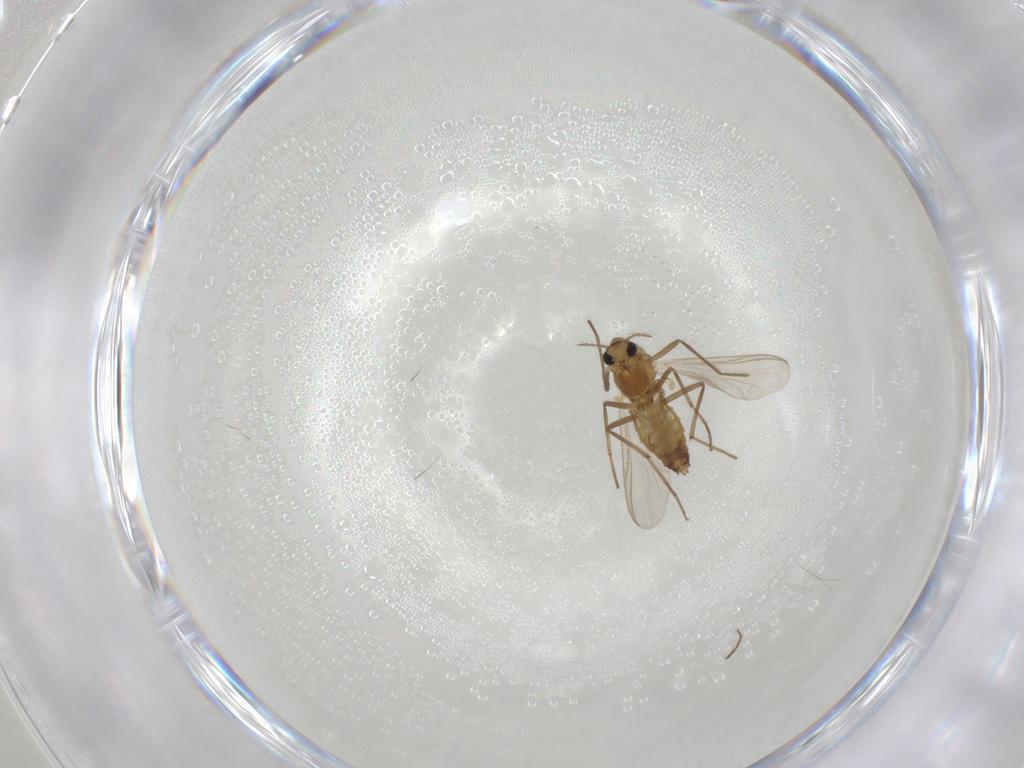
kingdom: Animalia
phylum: Arthropoda
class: Insecta
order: Diptera
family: Chironomidae
